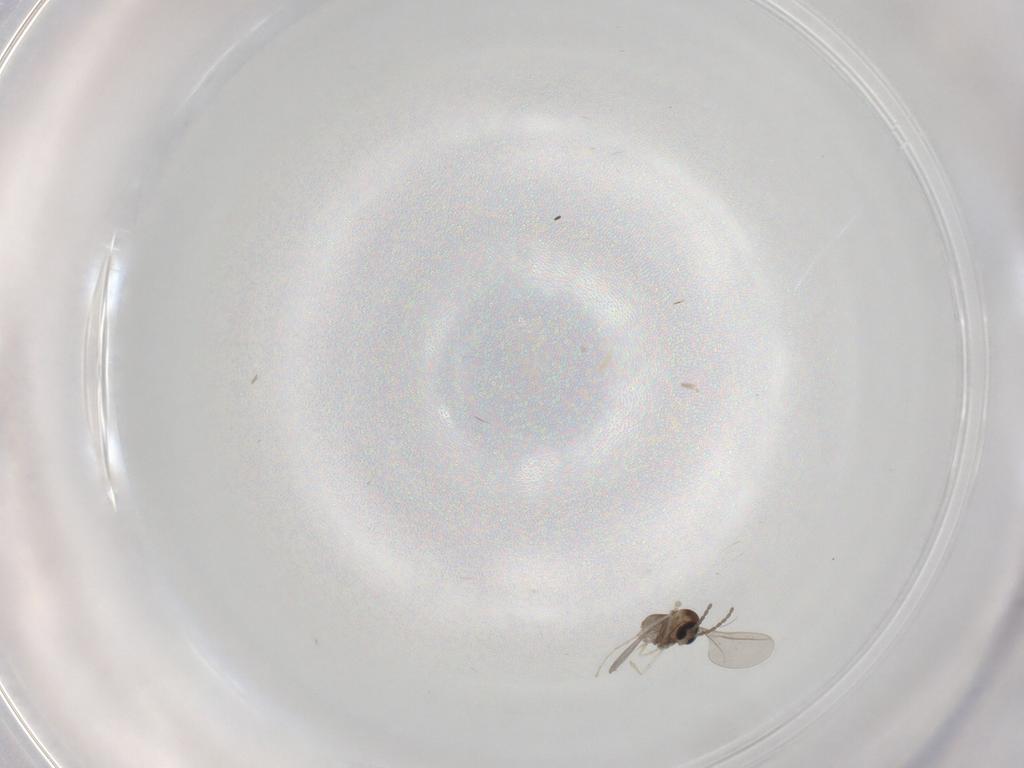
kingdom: Animalia
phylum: Arthropoda
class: Insecta
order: Diptera
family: Cecidomyiidae
